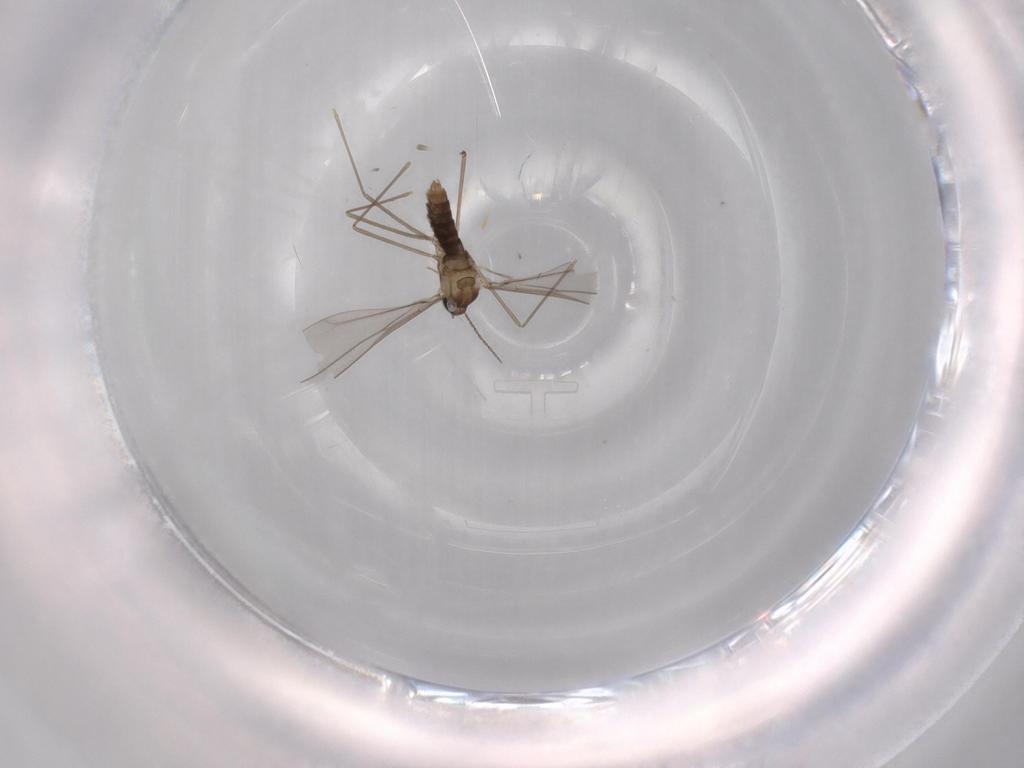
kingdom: Animalia
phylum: Arthropoda
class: Insecta
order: Diptera
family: Cecidomyiidae
